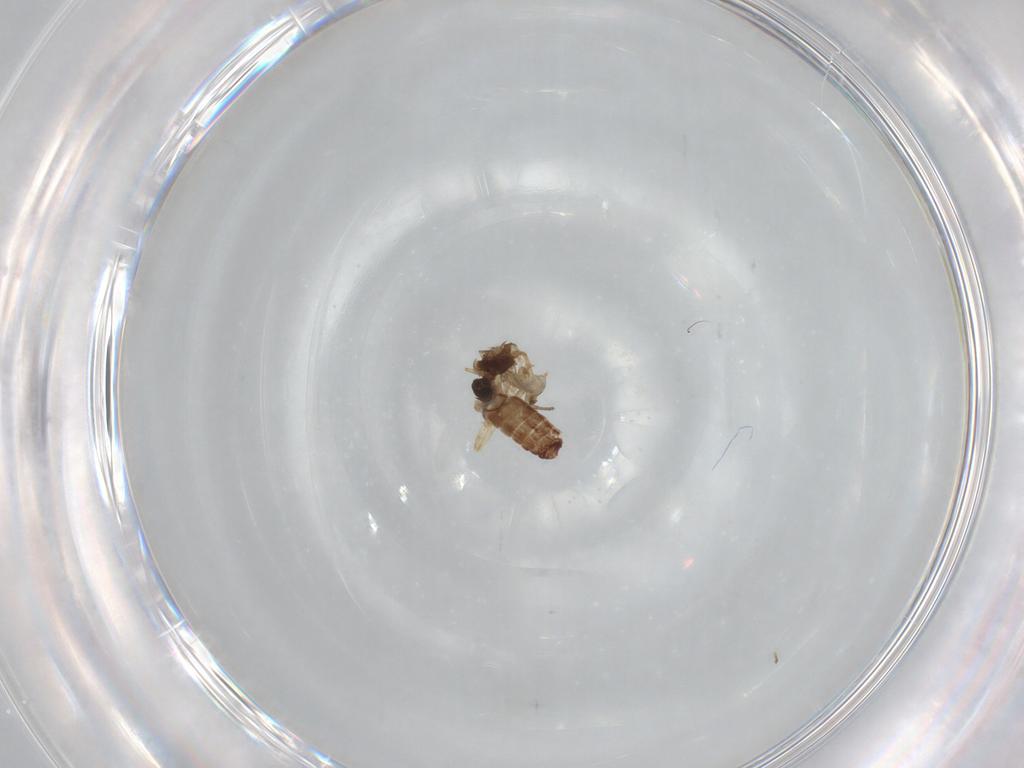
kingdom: Animalia
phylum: Arthropoda
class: Insecta
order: Diptera
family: Ceratopogonidae
